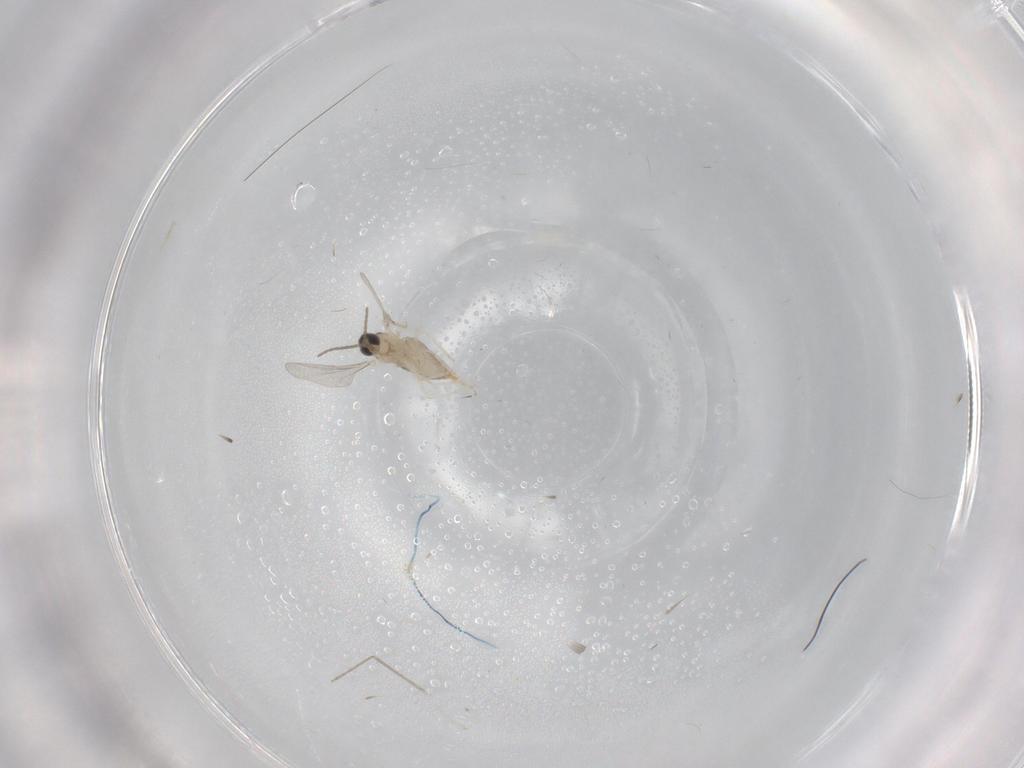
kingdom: Animalia
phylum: Arthropoda
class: Insecta
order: Diptera
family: Cecidomyiidae
